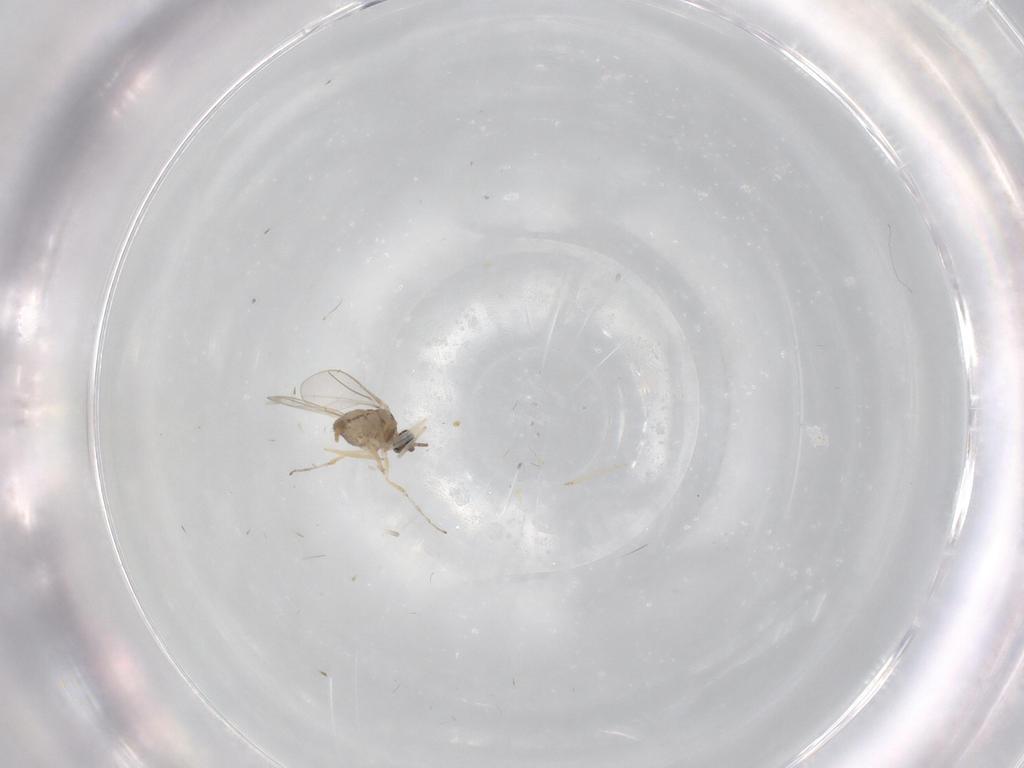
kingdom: Animalia
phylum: Arthropoda
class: Insecta
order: Diptera
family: Cecidomyiidae
